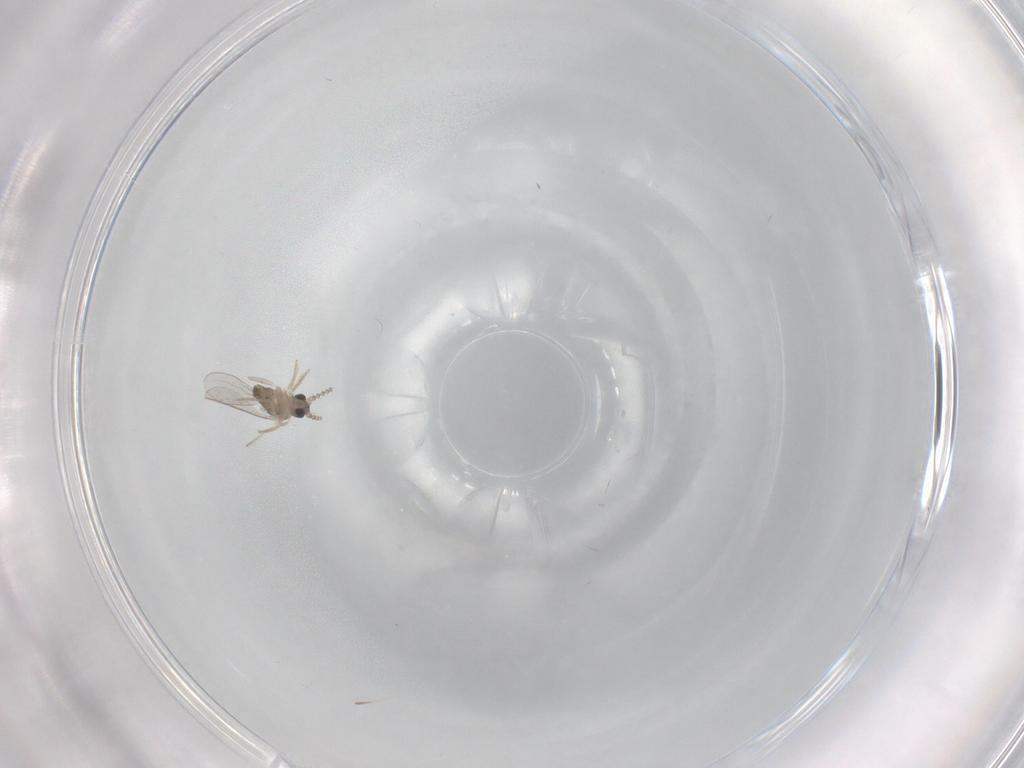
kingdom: Animalia
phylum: Arthropoda
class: Insecta
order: Diptera
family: Cecidomyiidae
